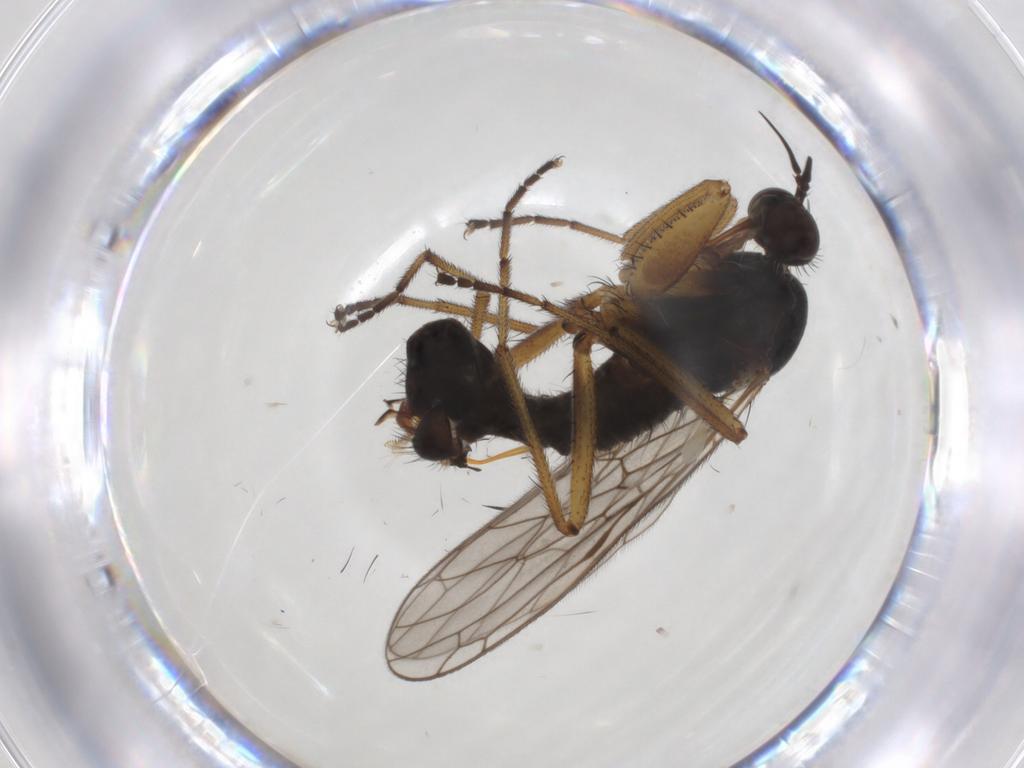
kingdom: Animalia
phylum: Arthropoda
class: Insecta
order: Diptera
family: Empididae
